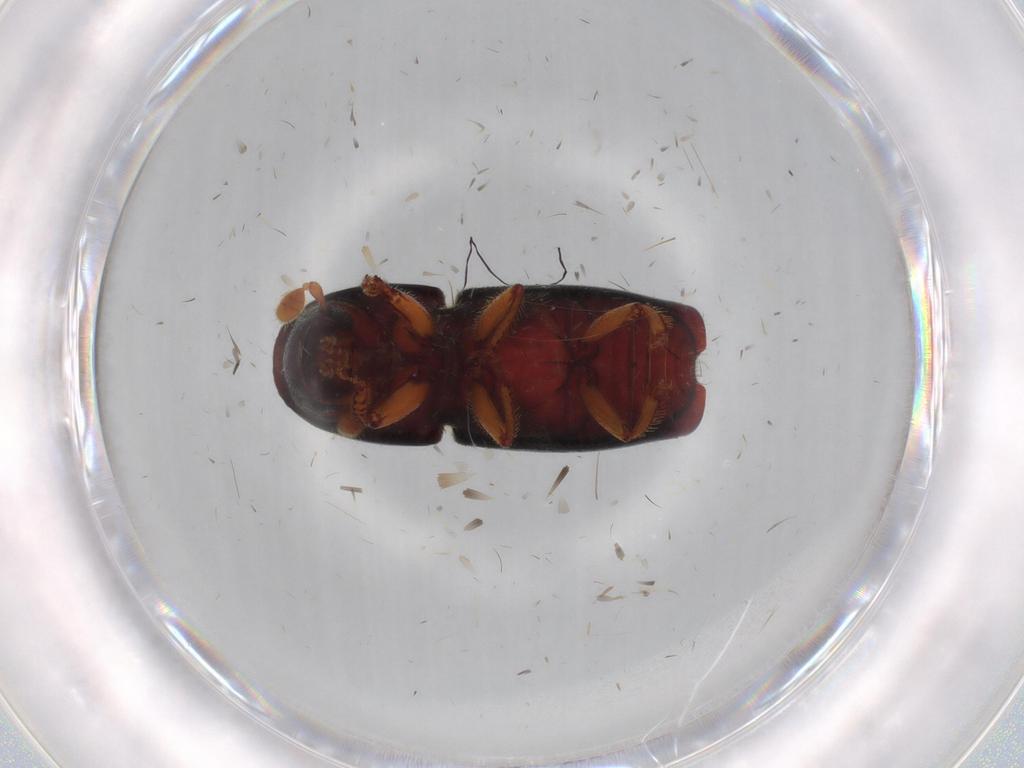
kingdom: Animalia
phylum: Arthropoda
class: Insecta
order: Coleoptera
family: Curculionidae
